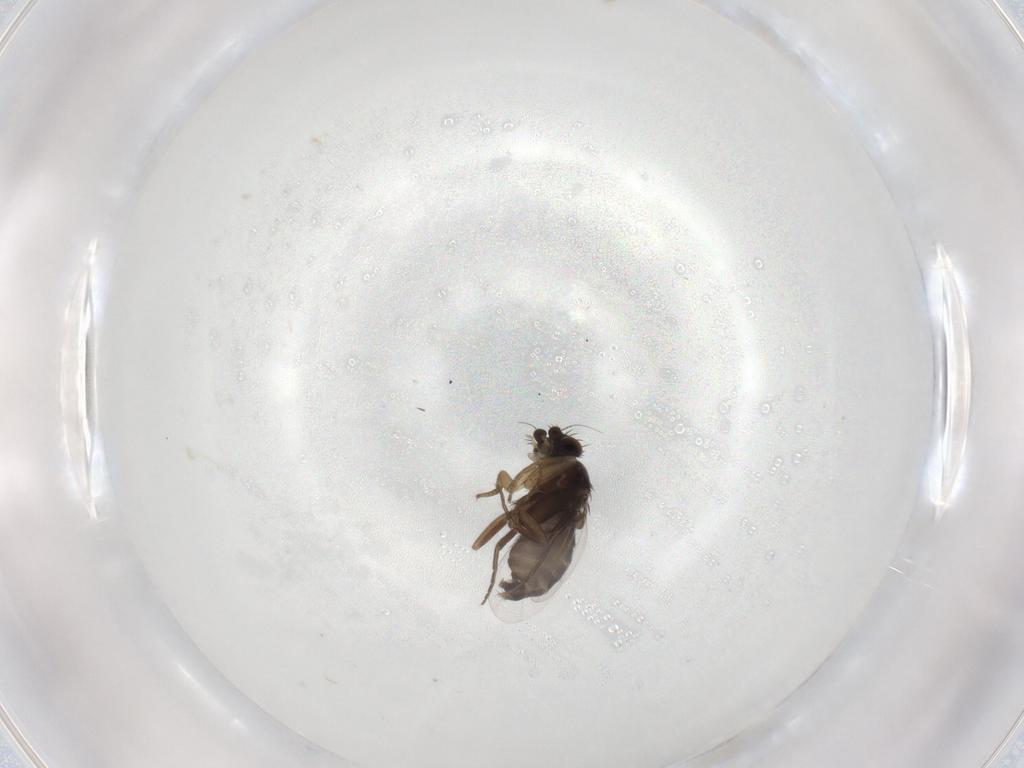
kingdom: Animalia
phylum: Arthropoda
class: Insecta
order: Diptera
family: Phoridae
